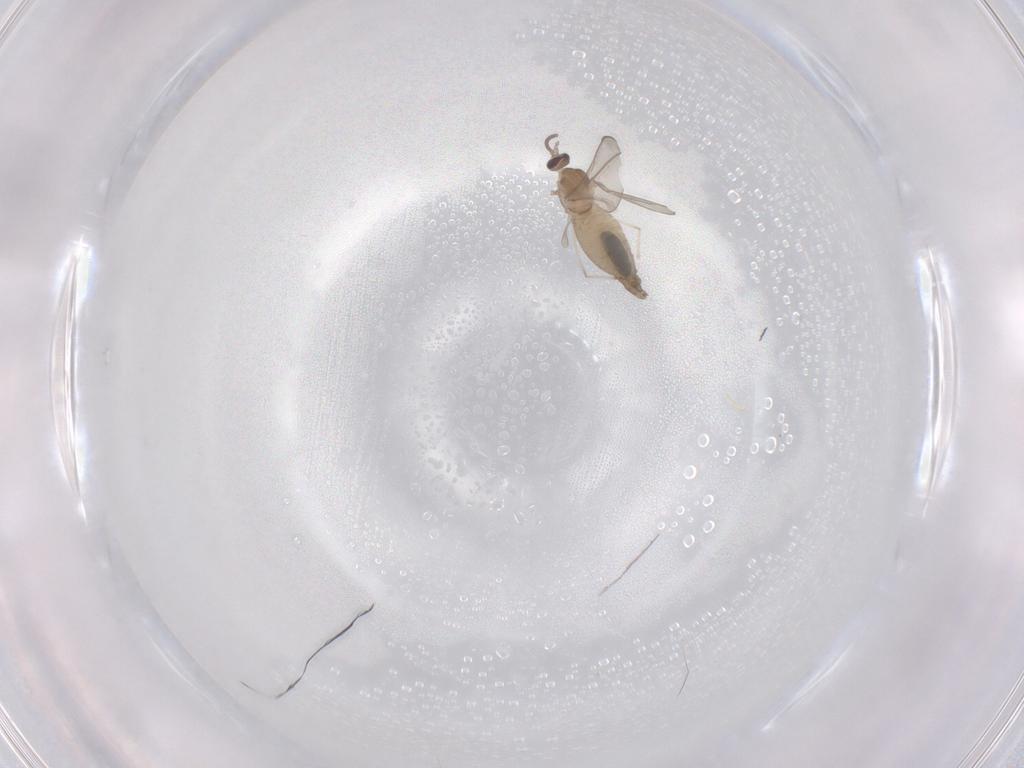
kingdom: Animalia
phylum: Arthropoda
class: Insecta
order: Diptera
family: Cecidomyiidae
